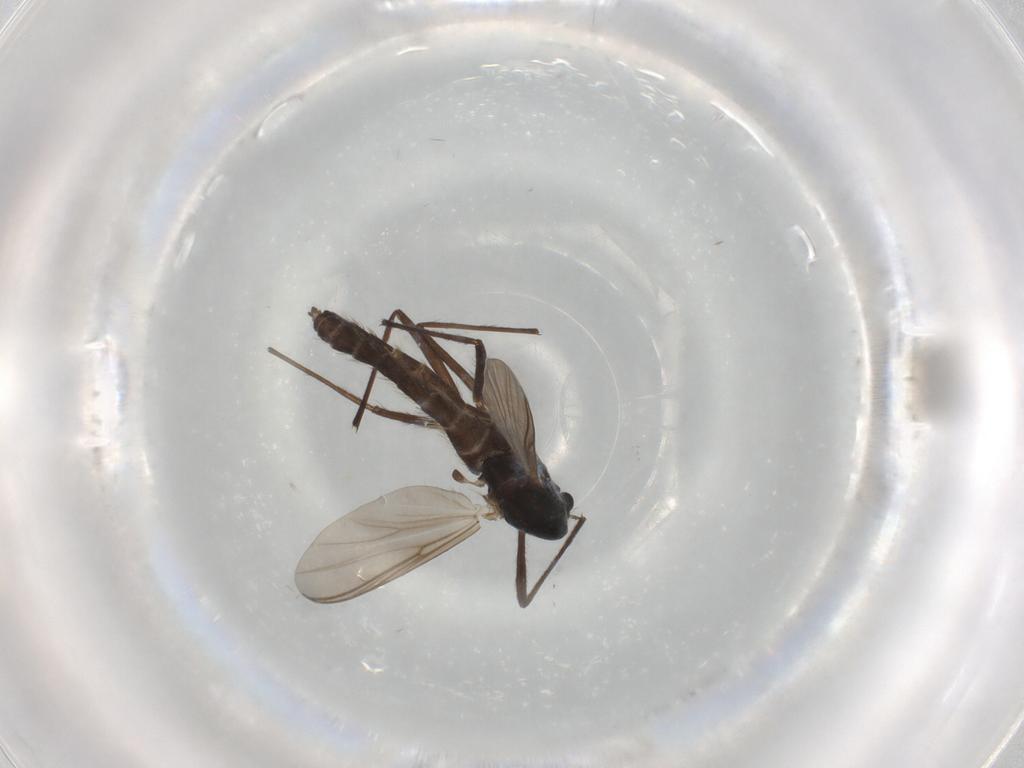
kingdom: Animalia
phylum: Arthropoda
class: Insecta
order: Diptera
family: Chironomidae
